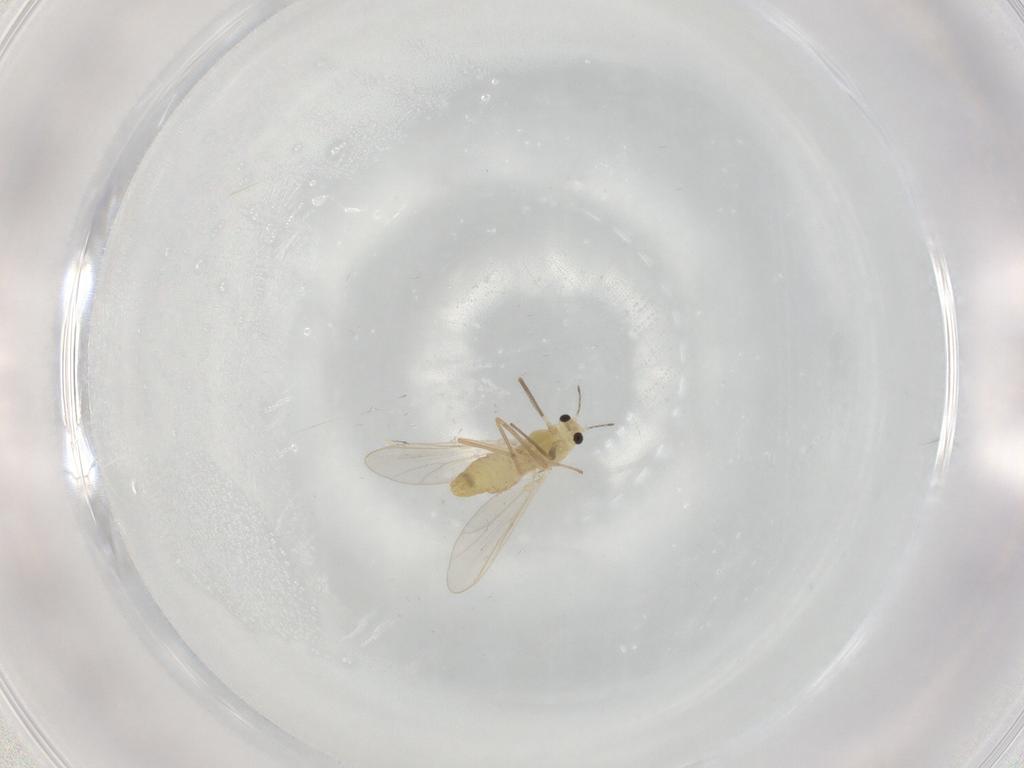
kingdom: Animalia
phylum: Arthropoda
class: Insecta
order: Diptera
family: Chironomidae
